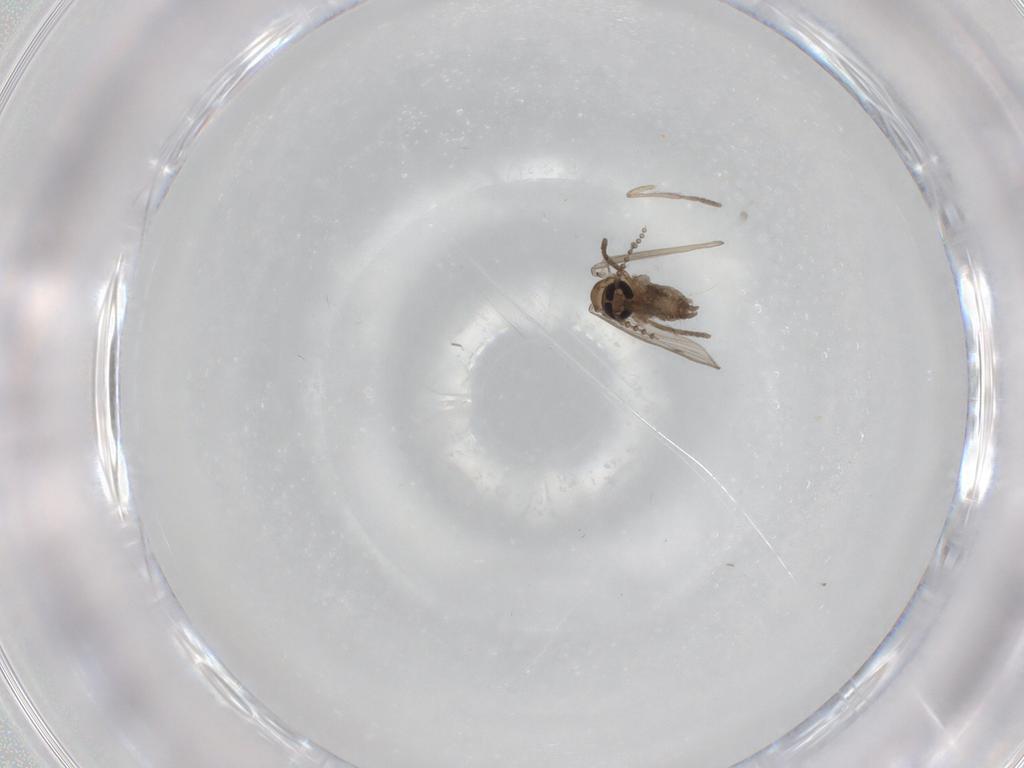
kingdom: Animalia
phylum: Arthropoda
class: Insecta
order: Diptera
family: Psychodidae
